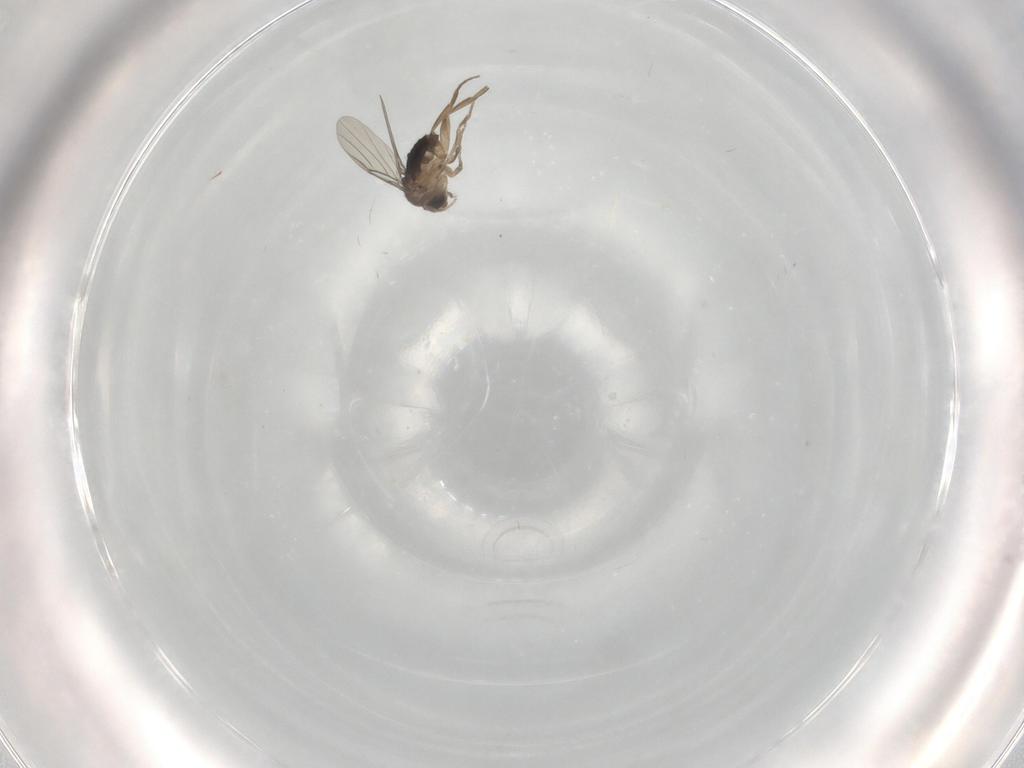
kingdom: Animalia
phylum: Arthropoda
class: Insecta
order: Diptera
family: Cecidomyiidae
